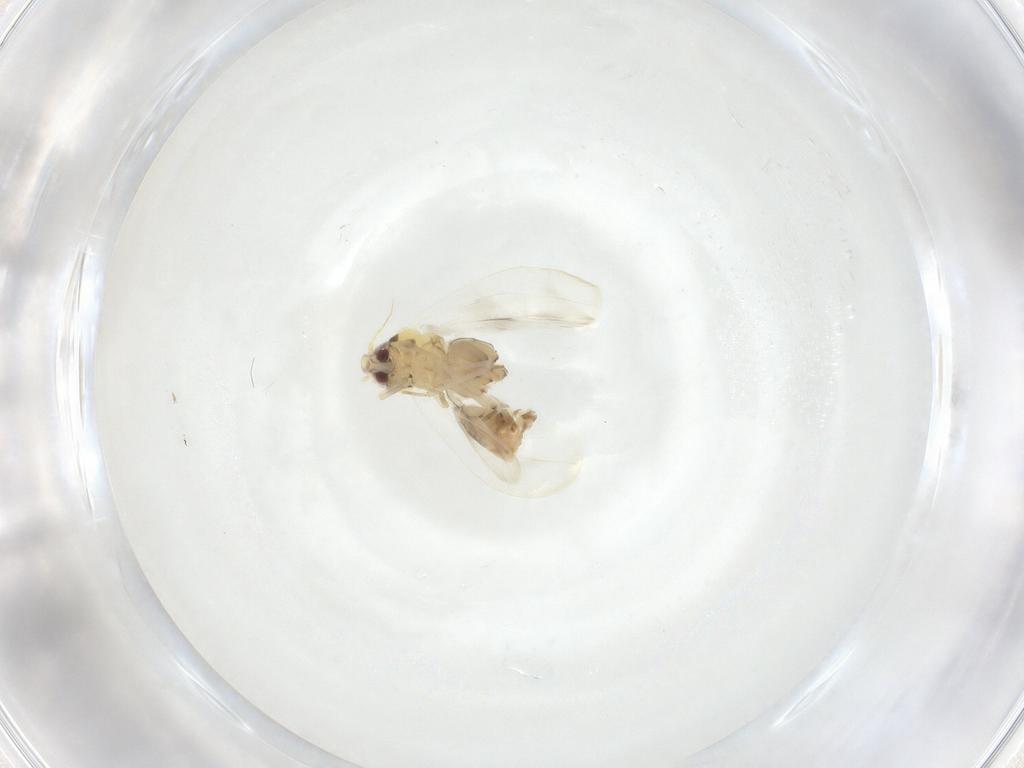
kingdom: Animalia
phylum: Arthropoda
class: Insecta
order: Hemiptera
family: Aleyrodidae
